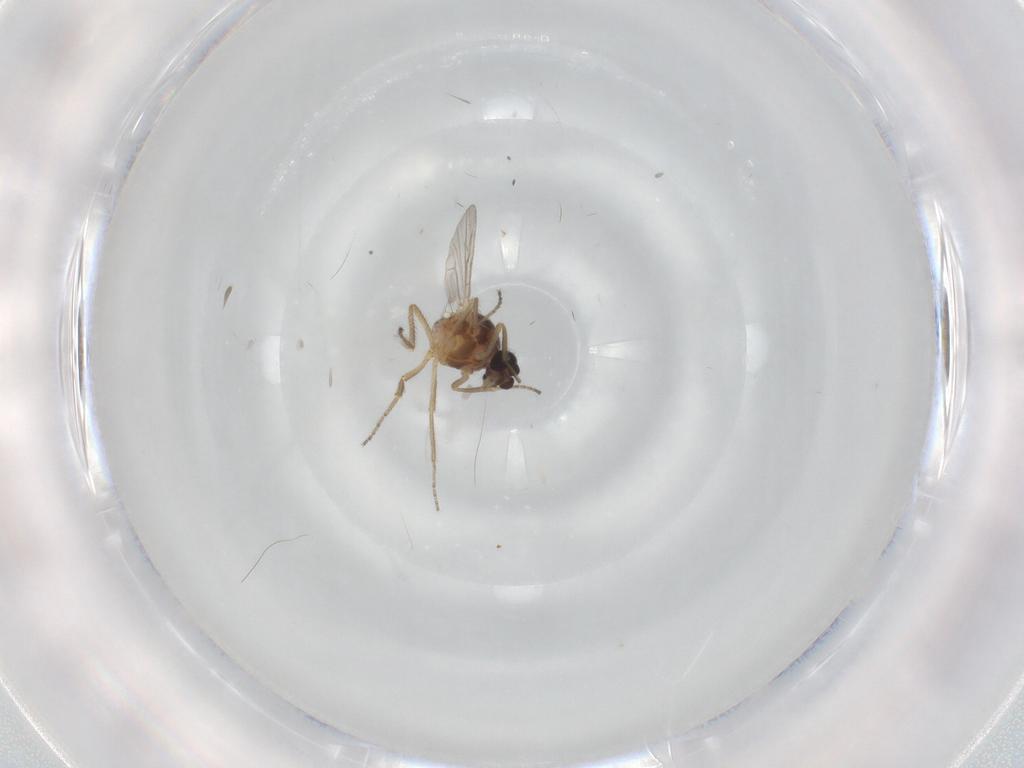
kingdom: Animalia
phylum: Arthropoda
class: Insecta
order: Diptera
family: Ceratopogonidae
